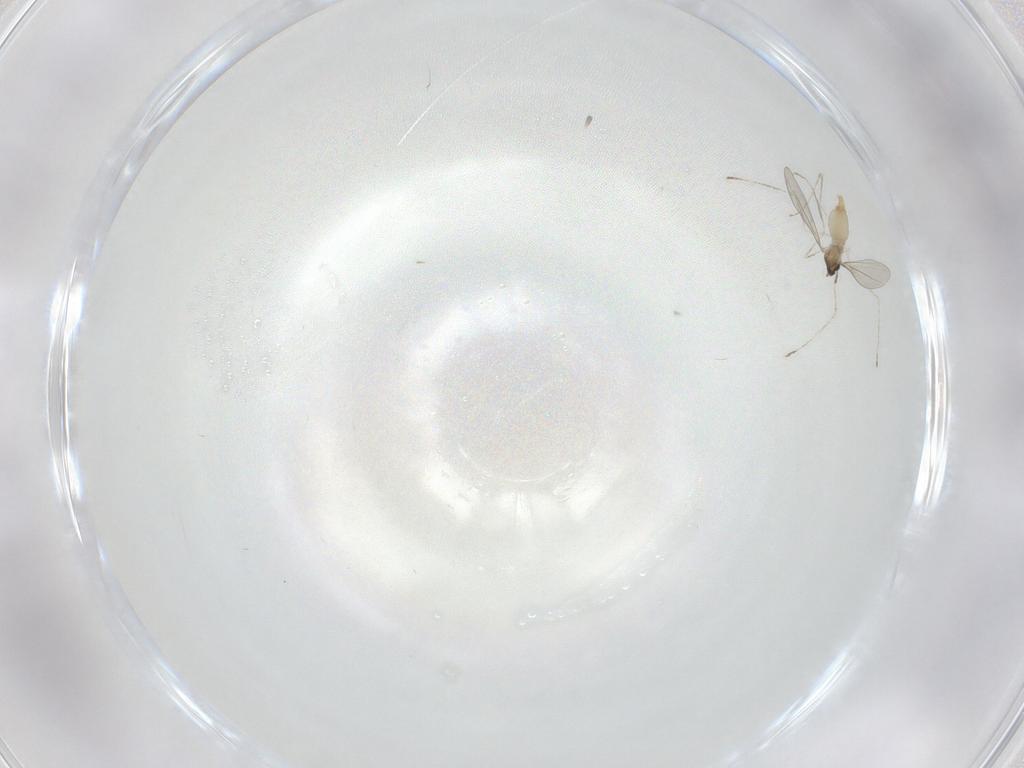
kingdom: Animalia
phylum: Arthropoda
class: Insecta
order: Diptera
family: Cecidomyiidae
